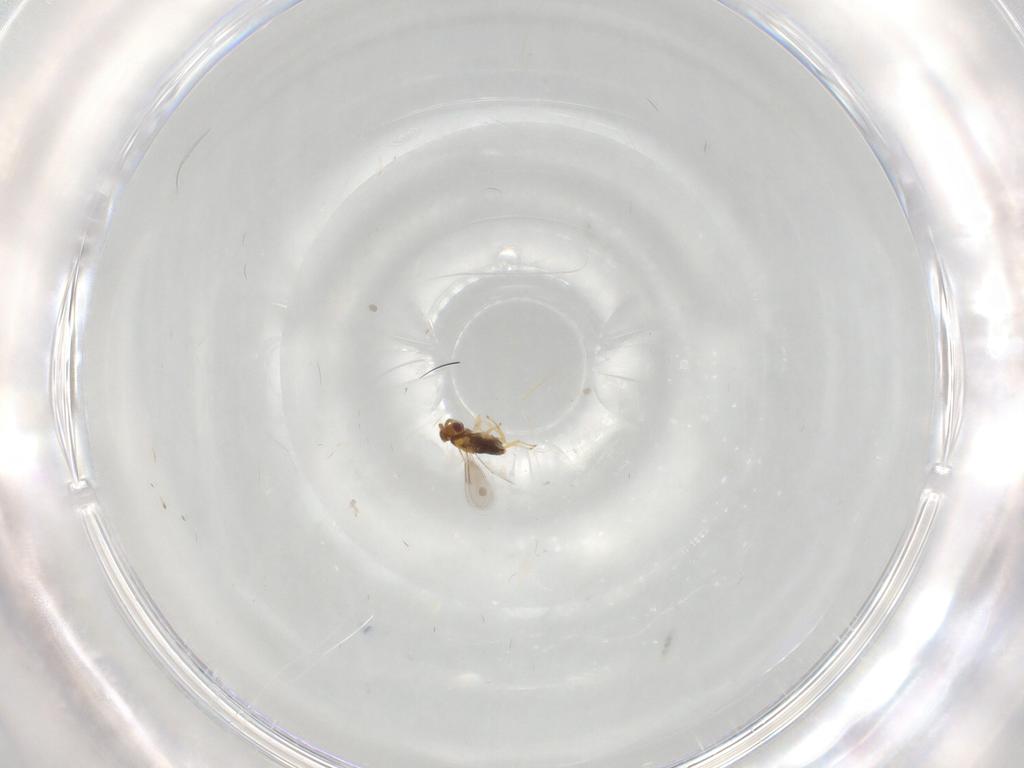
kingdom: Animalia
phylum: Arthropoda
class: Insecta
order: Hymenoptera
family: Aphelinidae
